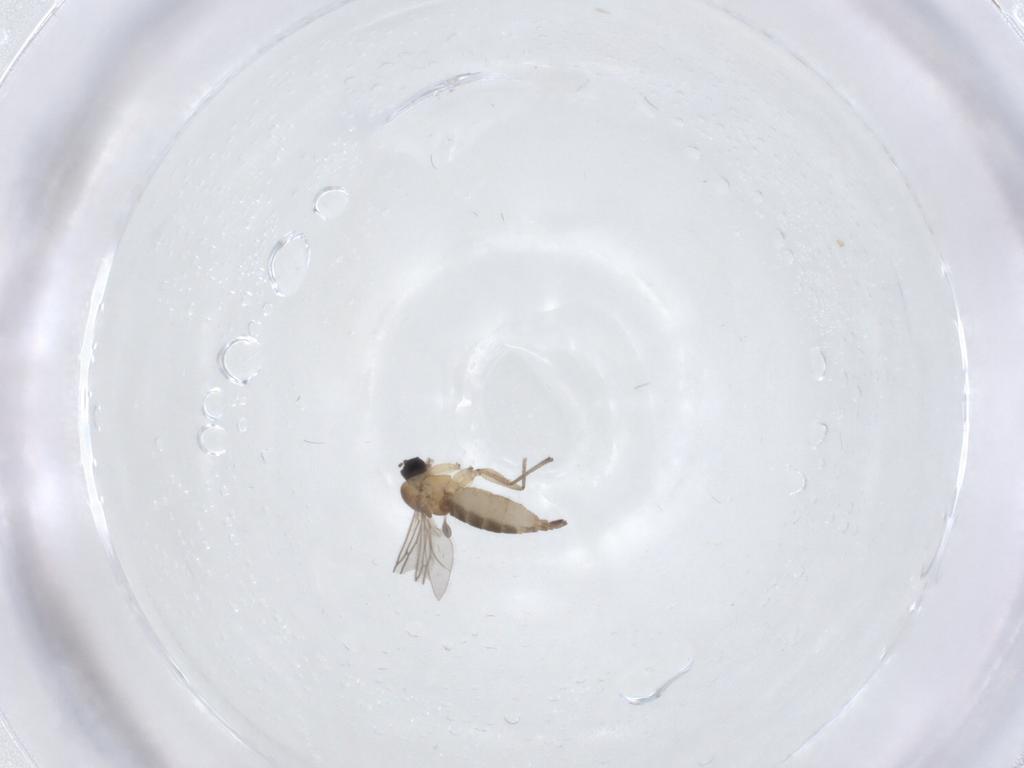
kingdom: Animalia
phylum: Arthropoda
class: Insecta
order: Diptera
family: Sciaridae
